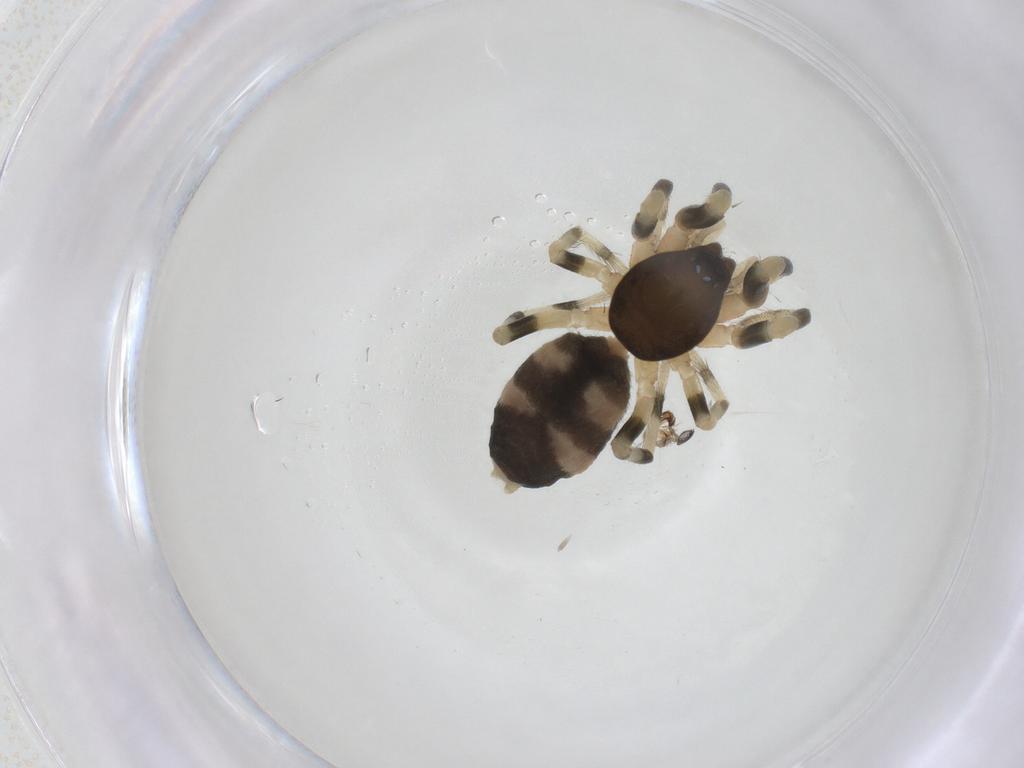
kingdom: Animalia
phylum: Arthropoda
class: Arachnida
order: Araneae
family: Lamponidae
